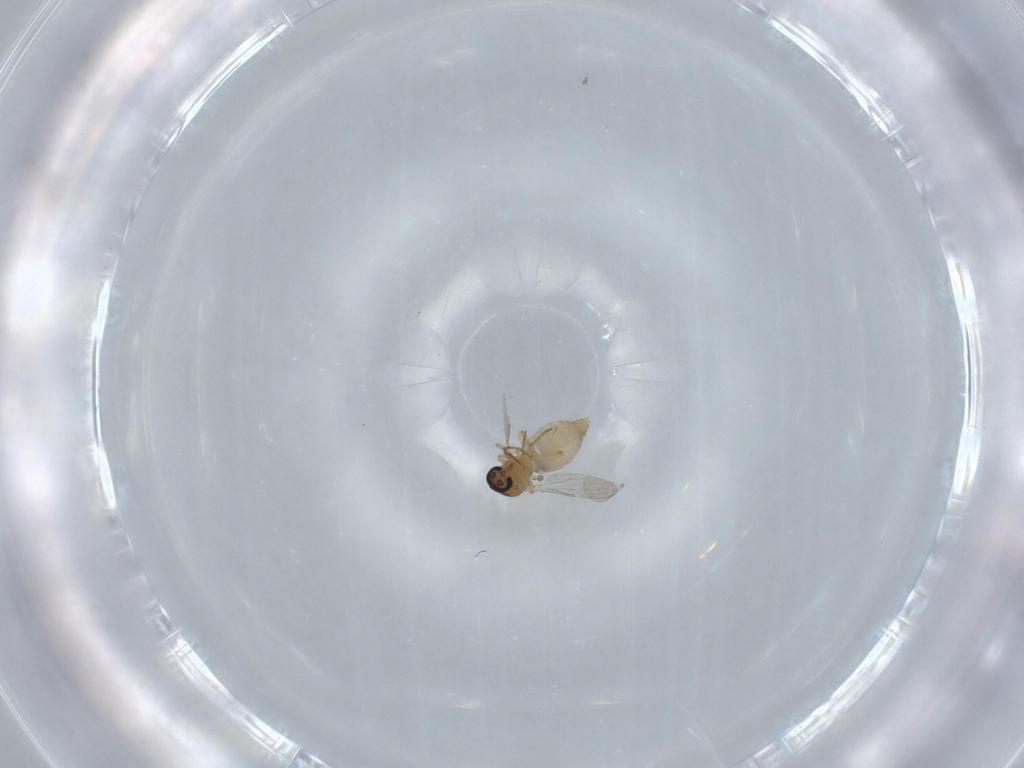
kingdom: Animalia
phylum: Arthropoda
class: Insecta
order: Diptera
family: Ceratopogonidae
